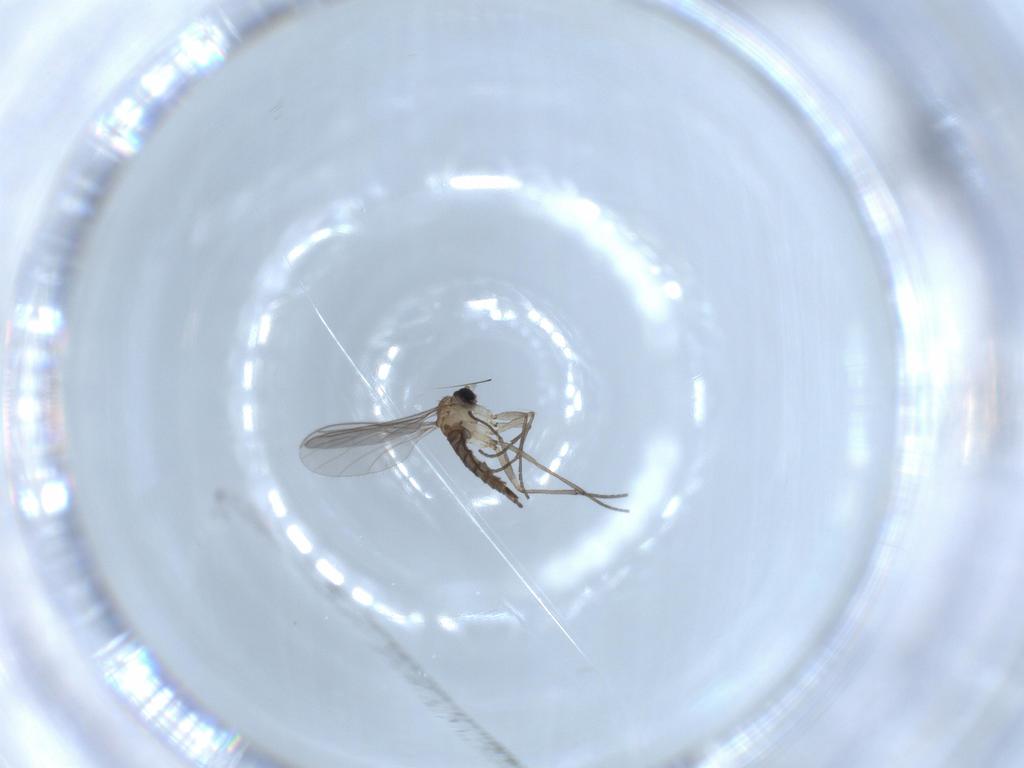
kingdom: Animalia
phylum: Arthropoda
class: Insecta
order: Diptera
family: Sciaridae
